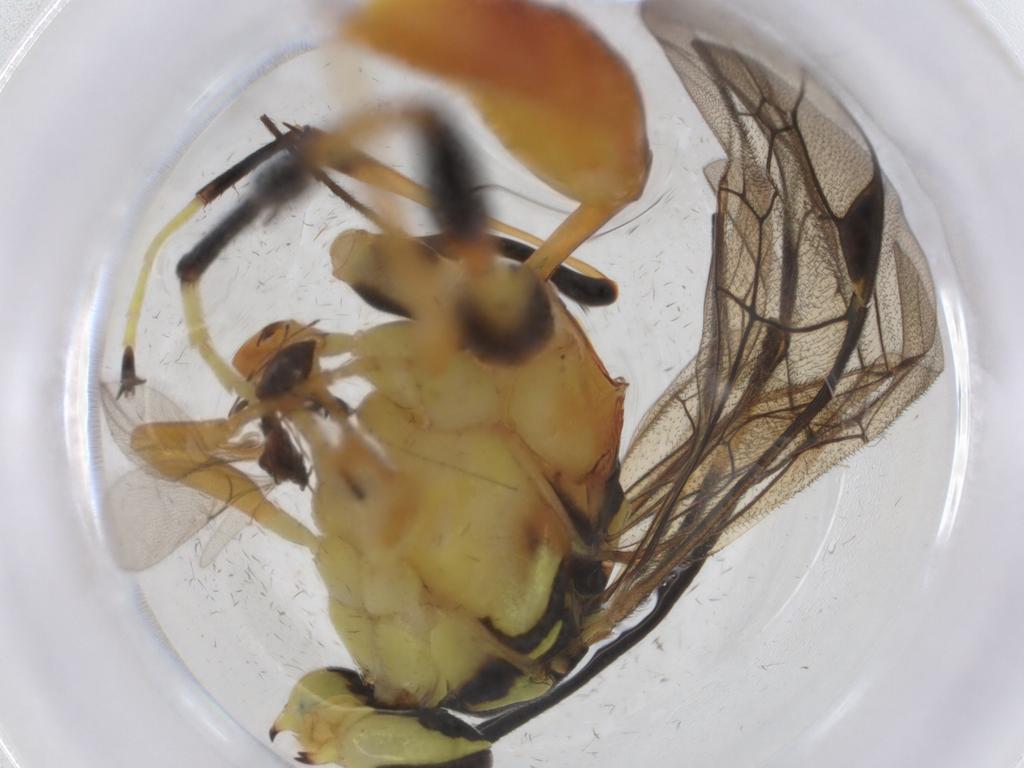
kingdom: Animalia
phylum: Arthropoda
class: Insecta
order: Hymenoptera
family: Ichneumonidae
